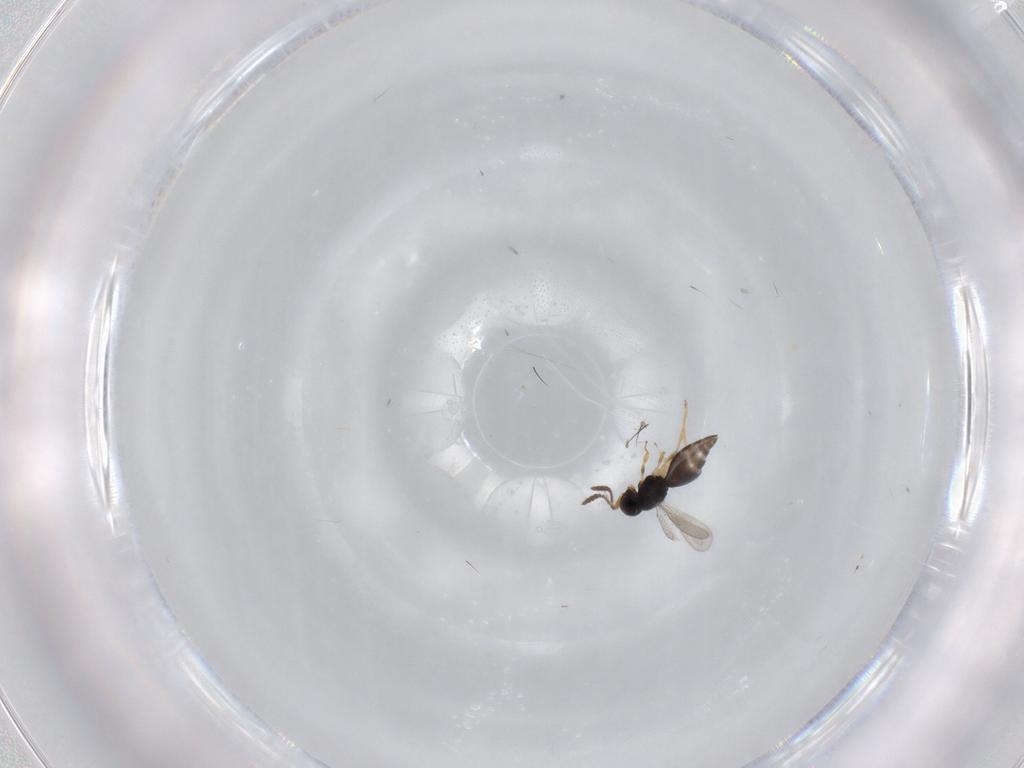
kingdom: Animalia
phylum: Arthropoda
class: Insecta
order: Hymenoptera
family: Scelionidae
